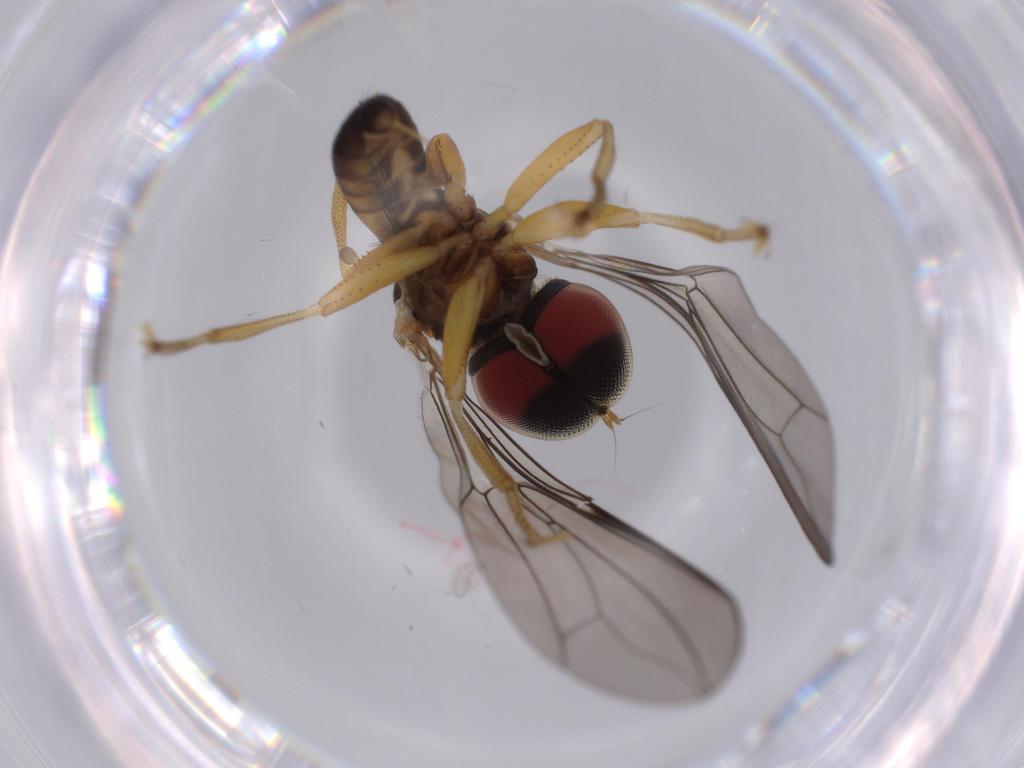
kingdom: Animalia
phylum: Arthropoda
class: Insecta
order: Diptera
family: Pipunculidae
